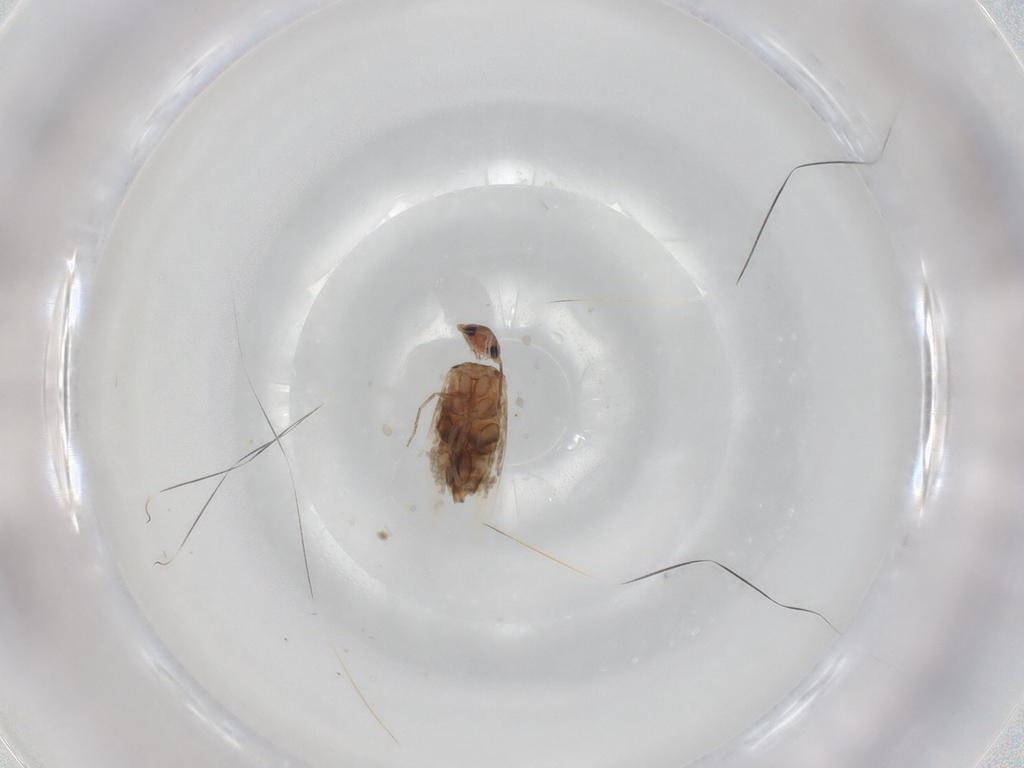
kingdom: Animalia
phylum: Arthropoda
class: Insecta
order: Lepidoptera
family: Nymphalidae
